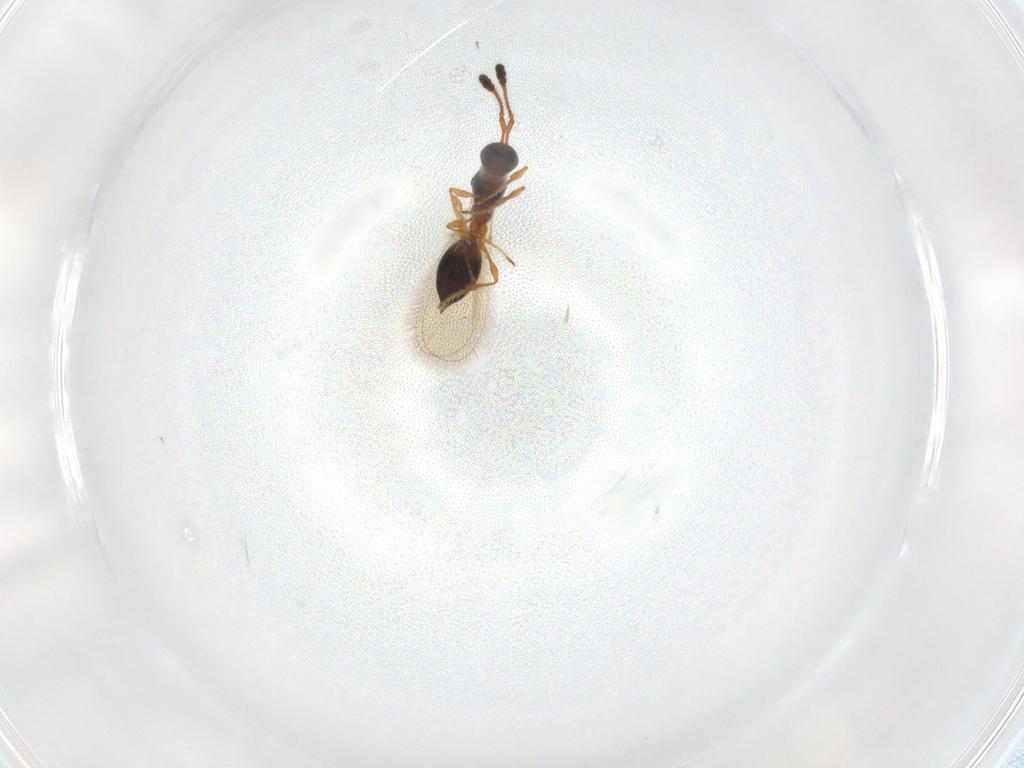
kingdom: Animalia
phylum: Arthropoda
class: Insecta
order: Hymenoptera
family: Diapriidae
